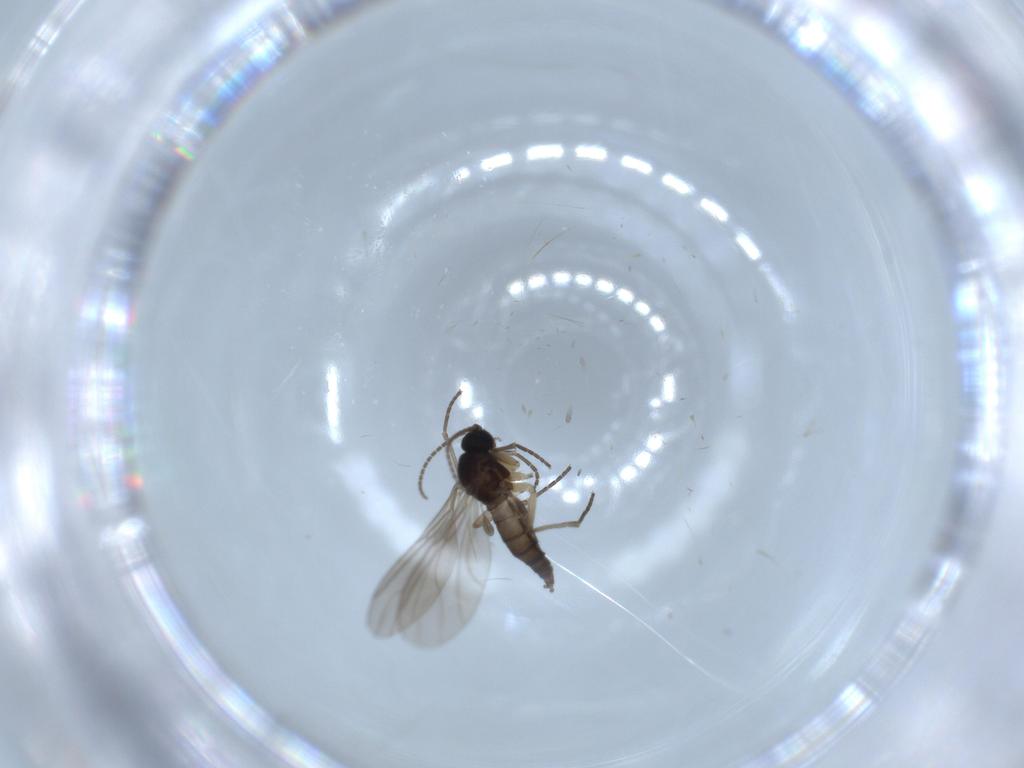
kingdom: Animalia
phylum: Arthropoda
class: Insecta
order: Diptera
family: Sciaridae
